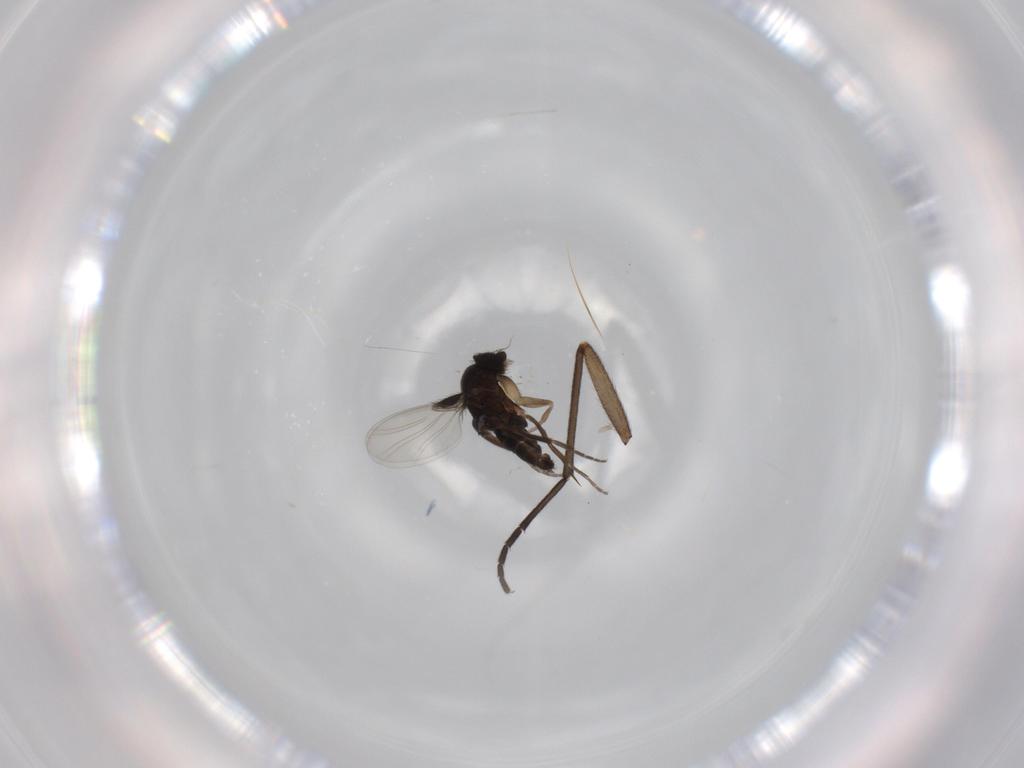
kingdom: Animalia
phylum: Arthropoda
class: Insecta
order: Diptera
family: Phoridae
